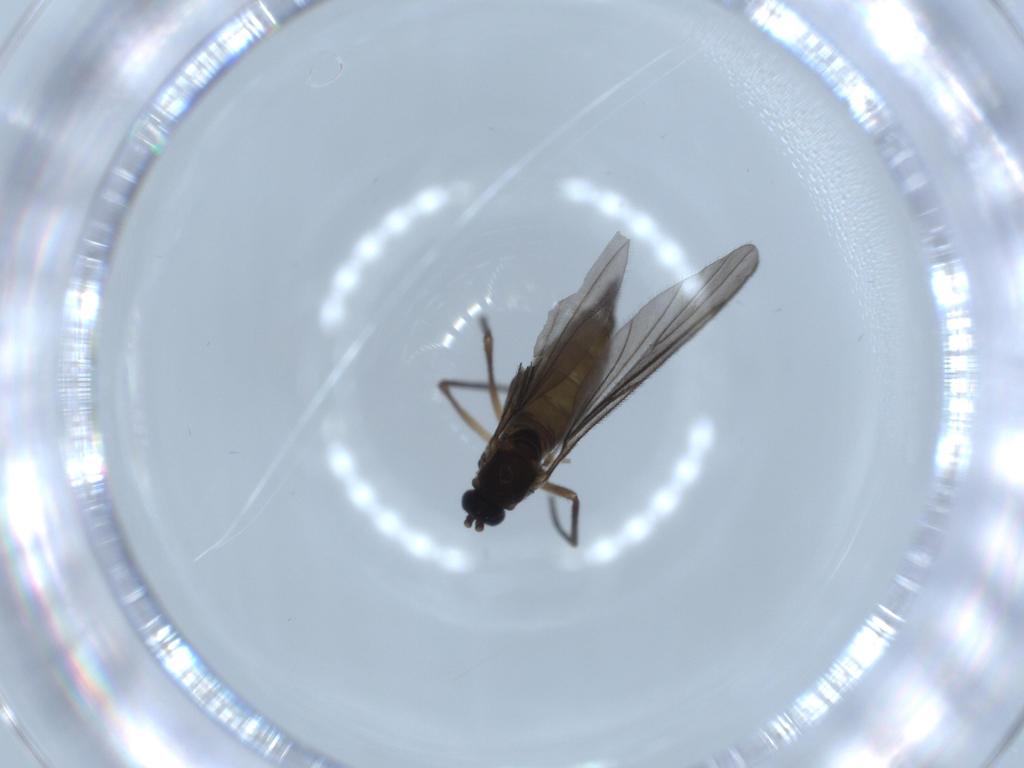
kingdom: Animalia
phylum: Arthropoda
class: Insecta
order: Diptera
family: Sciaridae
